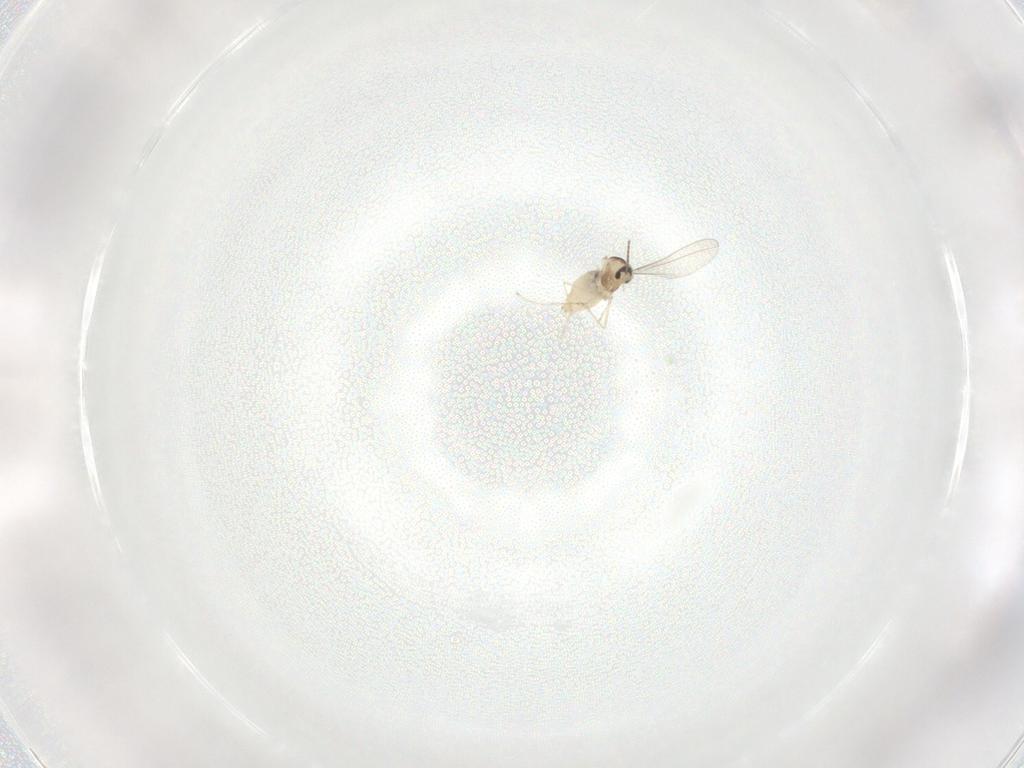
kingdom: Animalia
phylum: Arthropoda
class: Insecta
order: Diptera
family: Cecidomyiidae
